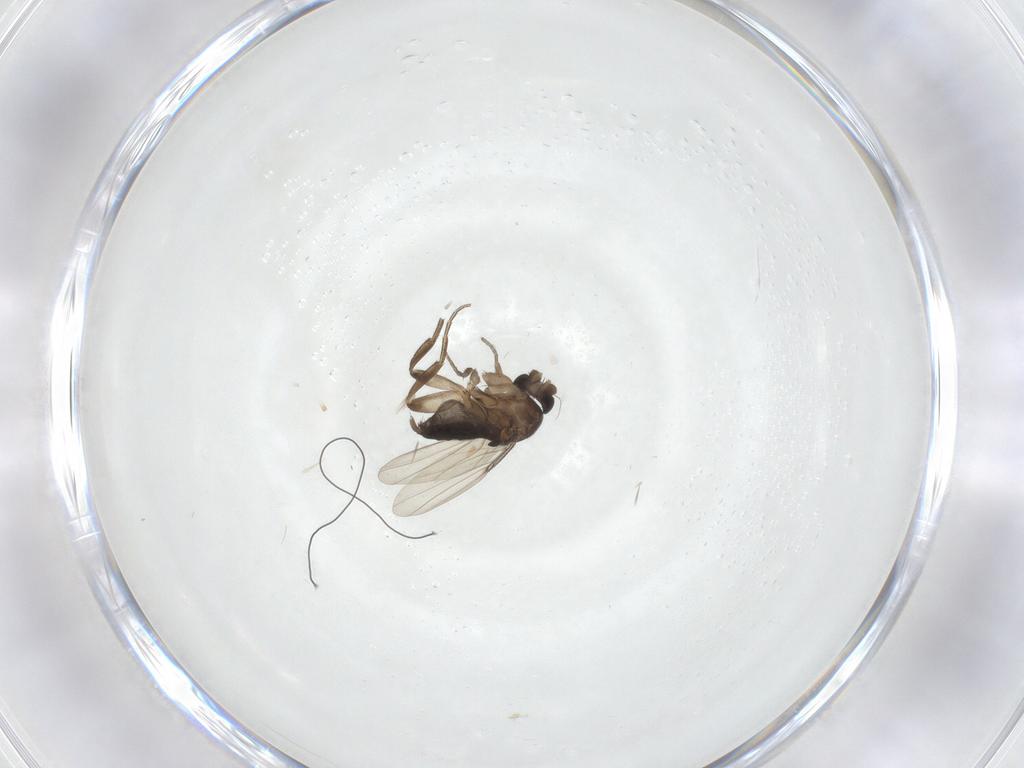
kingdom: Animalia
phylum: Arthropoda
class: Insecta
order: Diptera
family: Phoridae
